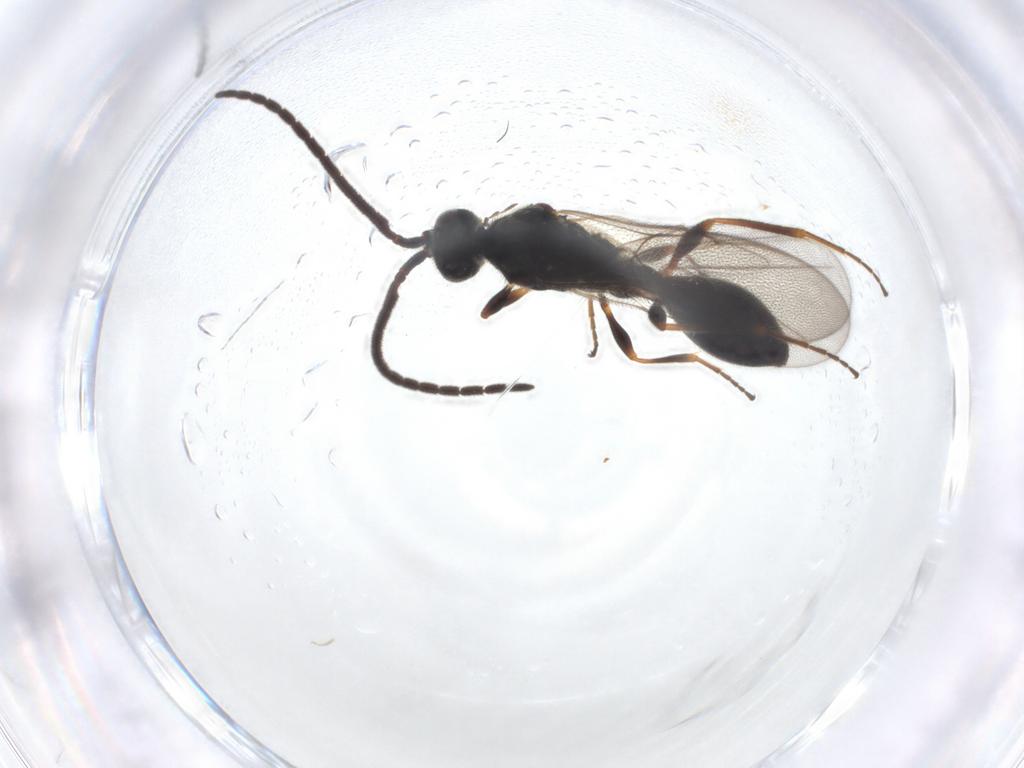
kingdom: Animalia
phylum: Arthropoda
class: Insecta
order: Hymenoptera
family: Diapriidae
